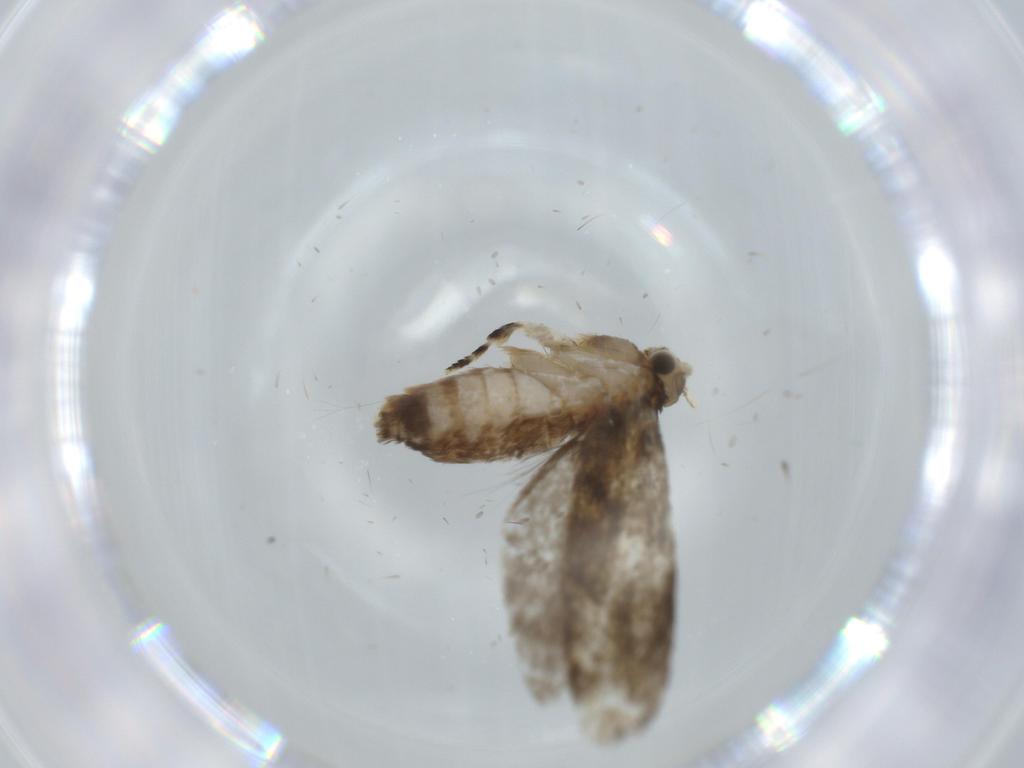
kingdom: Animalia
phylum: Arthropoda
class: Insecta
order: Lepidoptera
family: Tineidae
